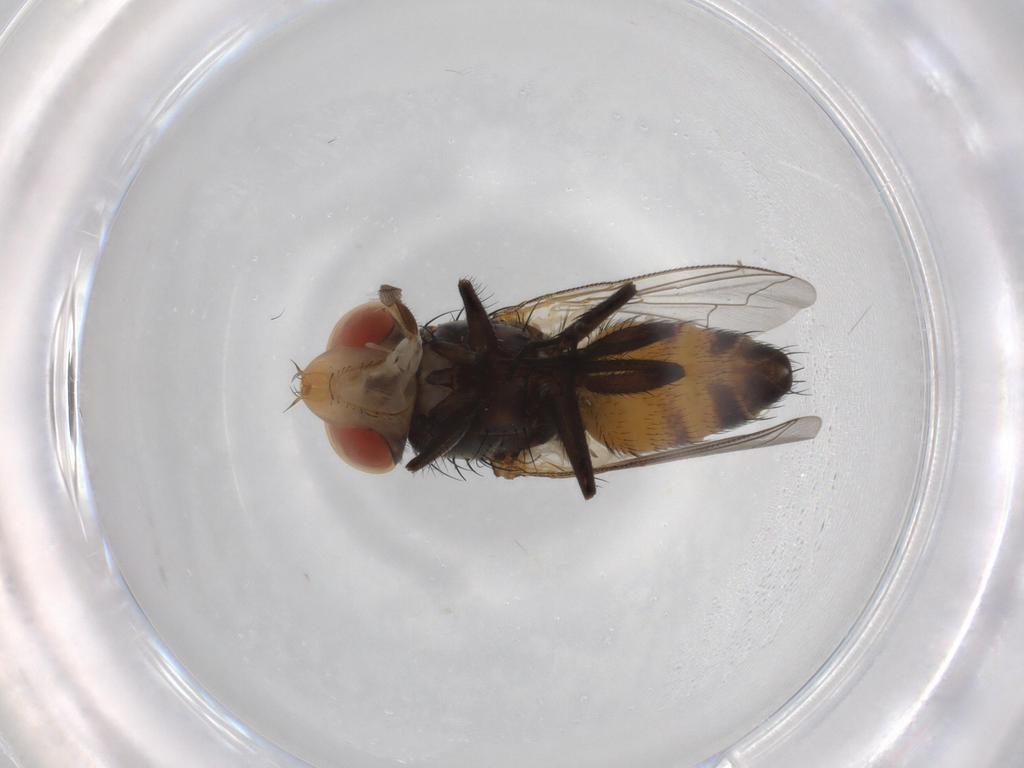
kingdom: Animalia
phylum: Arthropoda
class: Insecta
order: Diptera
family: Sarcophagidae
